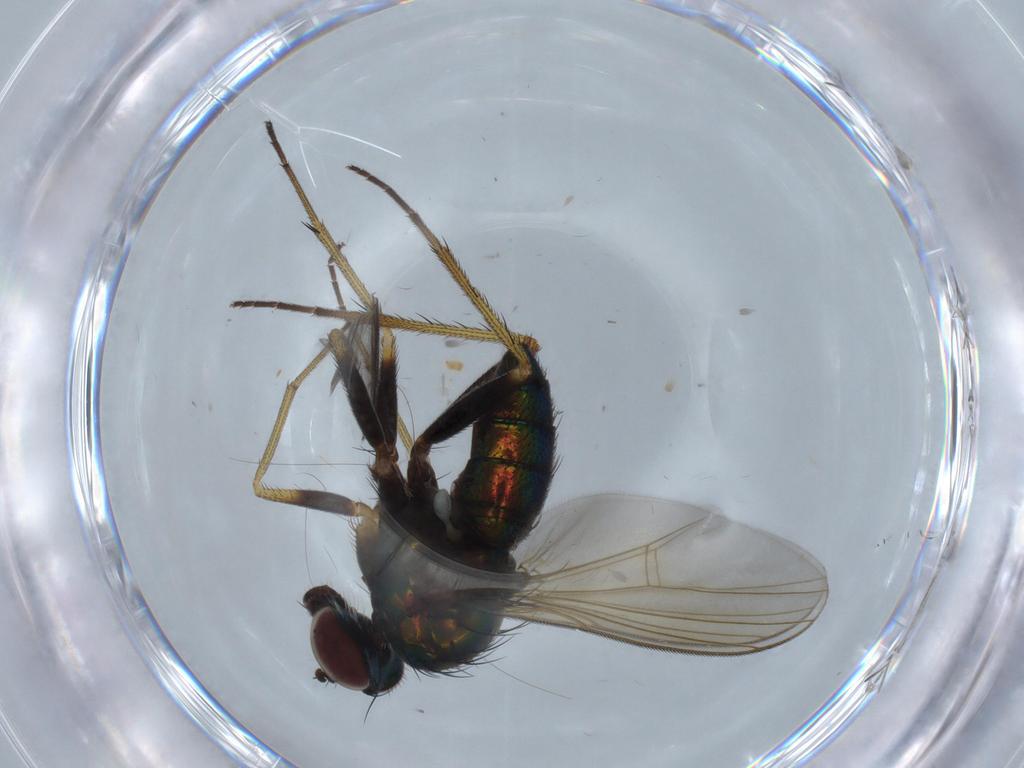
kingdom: Animalia
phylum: Arthropoda
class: Insecta
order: Diptera
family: Dolichopodidae
